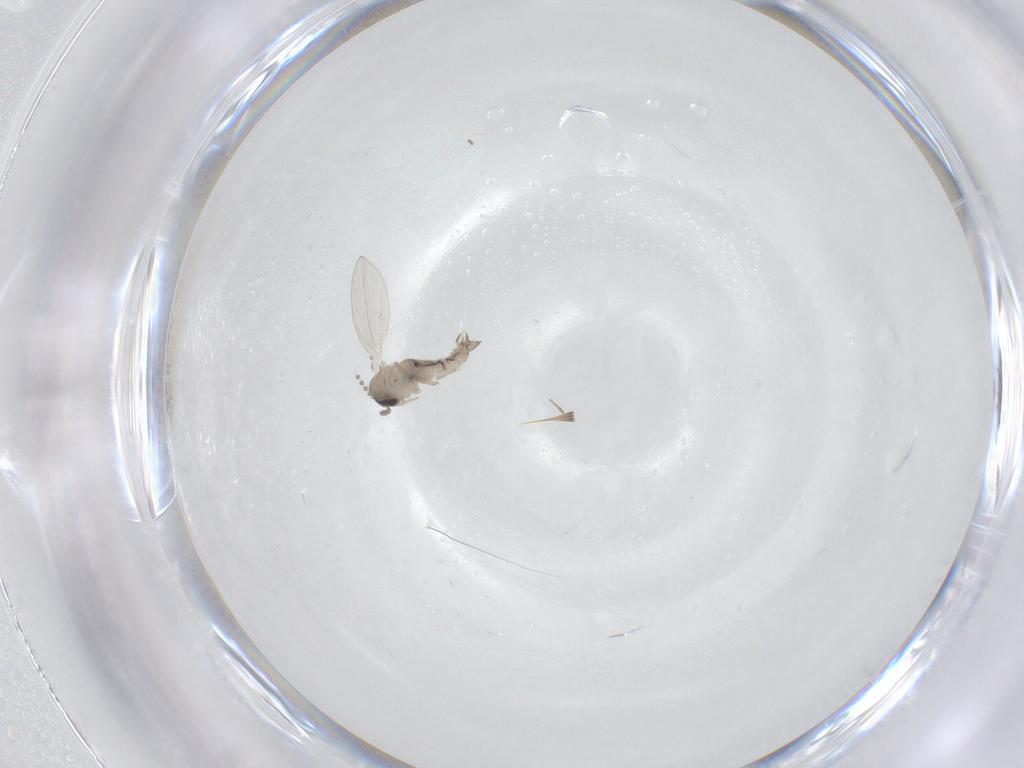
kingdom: Animalia
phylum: Arthropoda
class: Insecta
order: Diptera
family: Psychodidae
